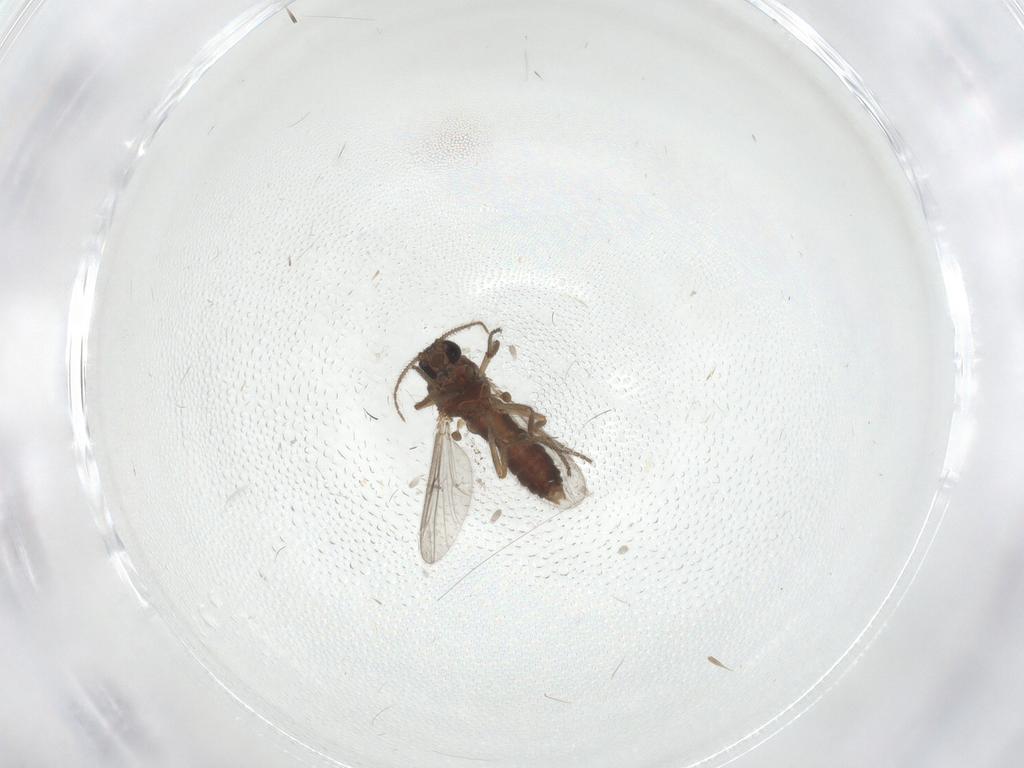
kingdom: Animalia
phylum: Arthropoda
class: Insecta
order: Diptera
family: Ceratopogonidae
